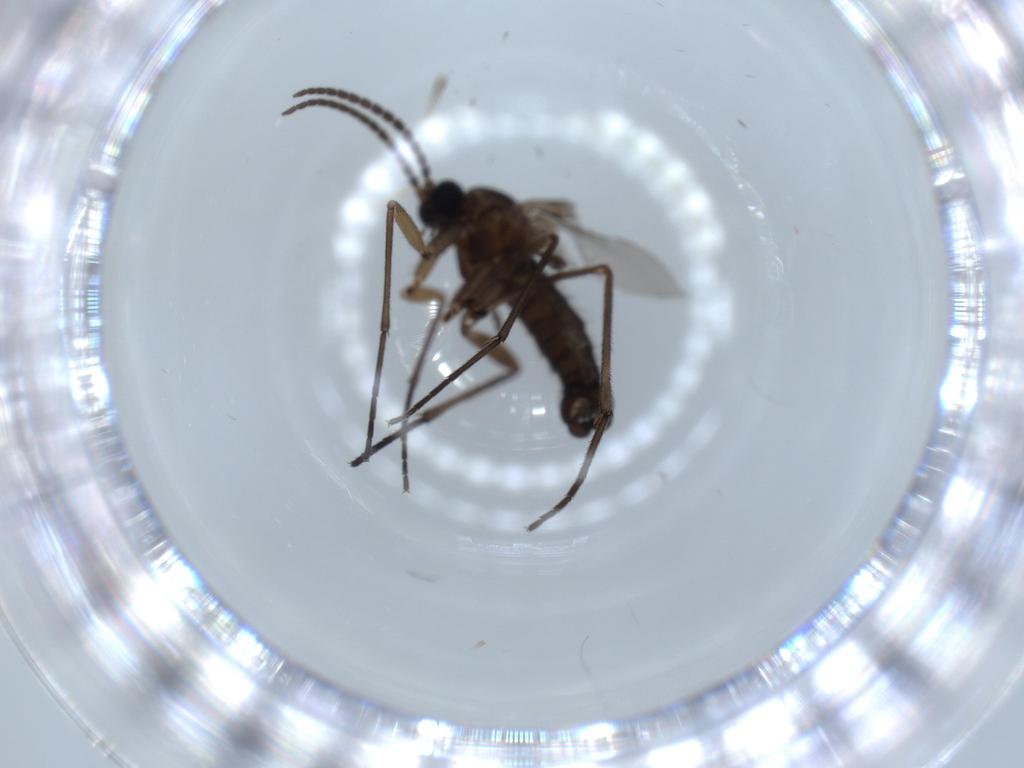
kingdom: Animalia
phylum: Arthropoda
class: Insecta
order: Diptera
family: Sciaridae
